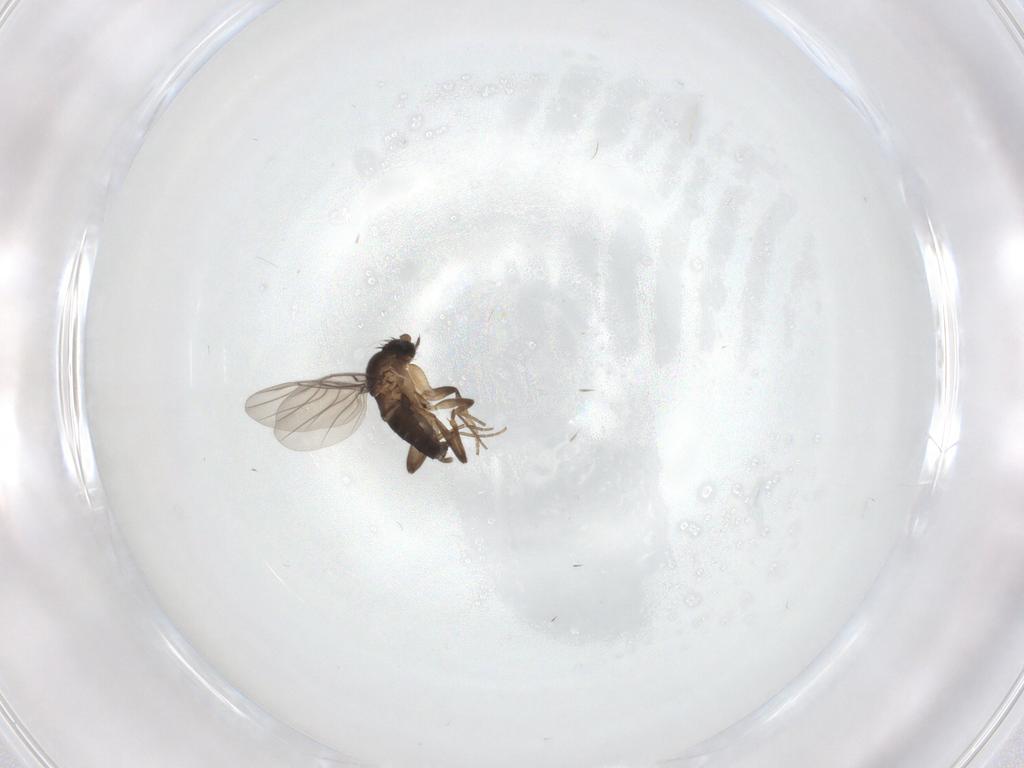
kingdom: Animalia
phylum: Arthropoda
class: Insecta
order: Diptera
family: Phoridae
